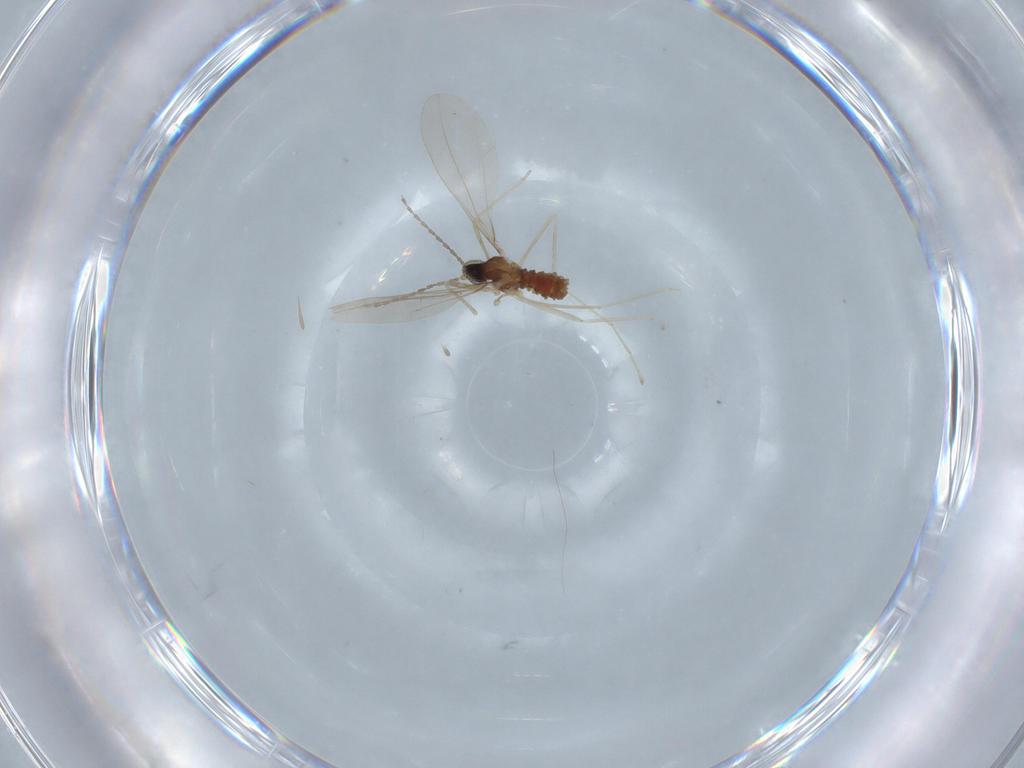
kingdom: Animalia
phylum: Arthropoda
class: Insecta
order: Diptera
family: Cecidomyiidae
